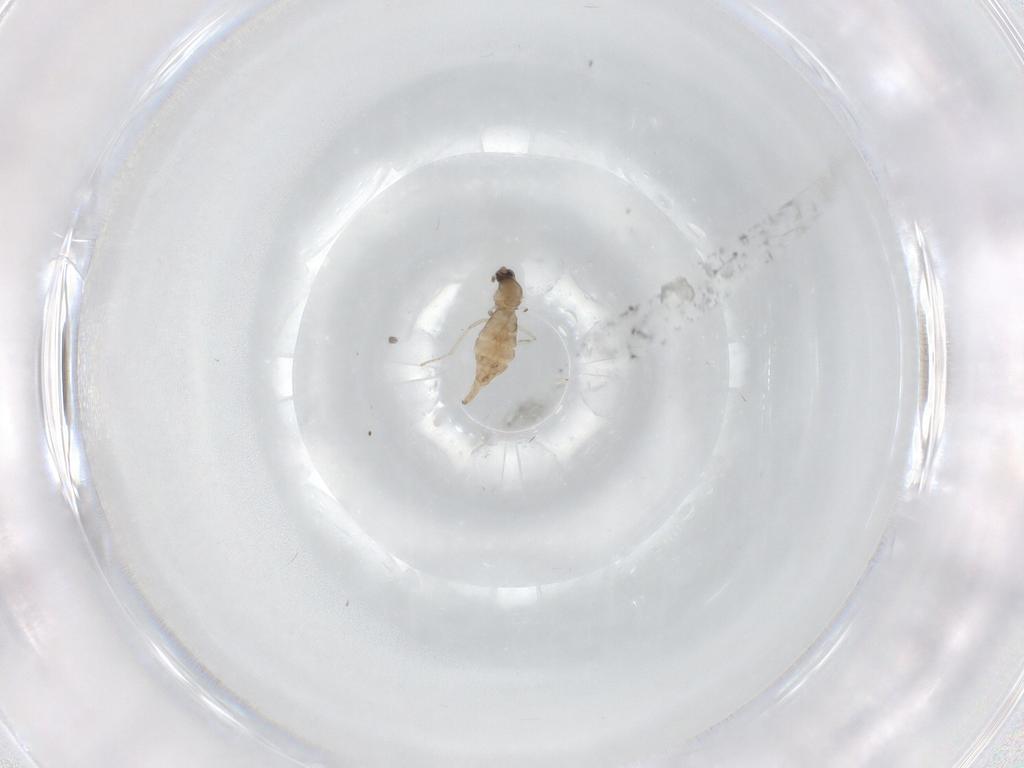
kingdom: Animalia
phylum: Arthropoda
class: Insecta
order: Diptera
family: Cecidomyiidae
